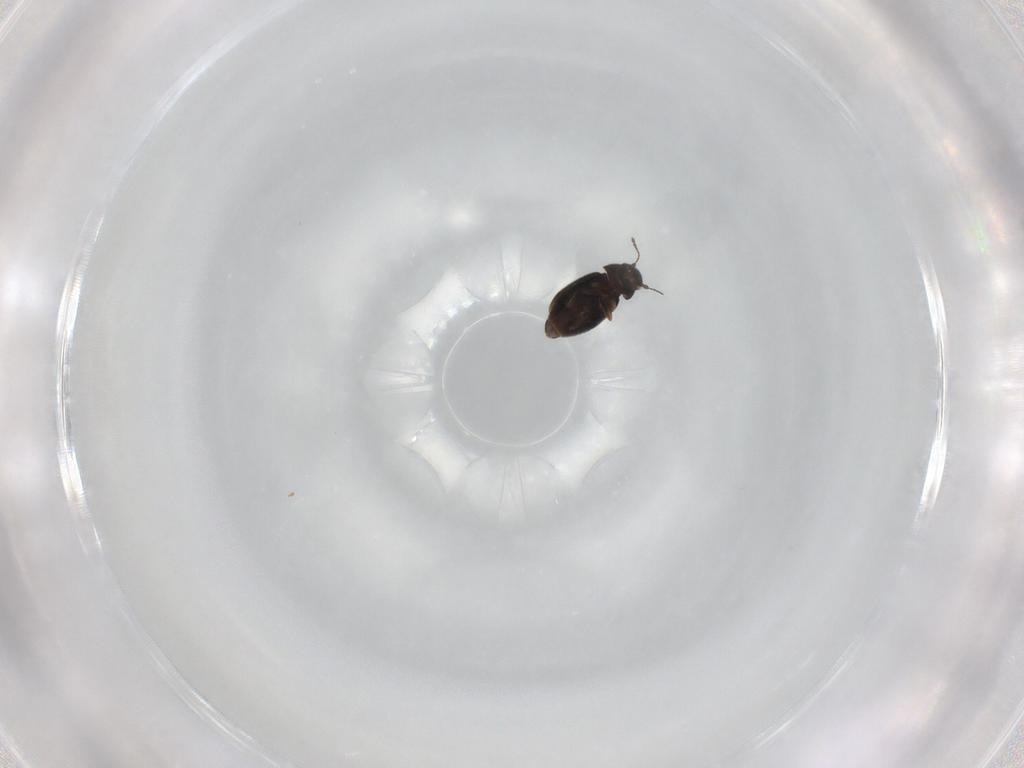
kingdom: Animalia
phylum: Arthropoda
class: Insecta
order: Coleoptera
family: Ptiliidae
